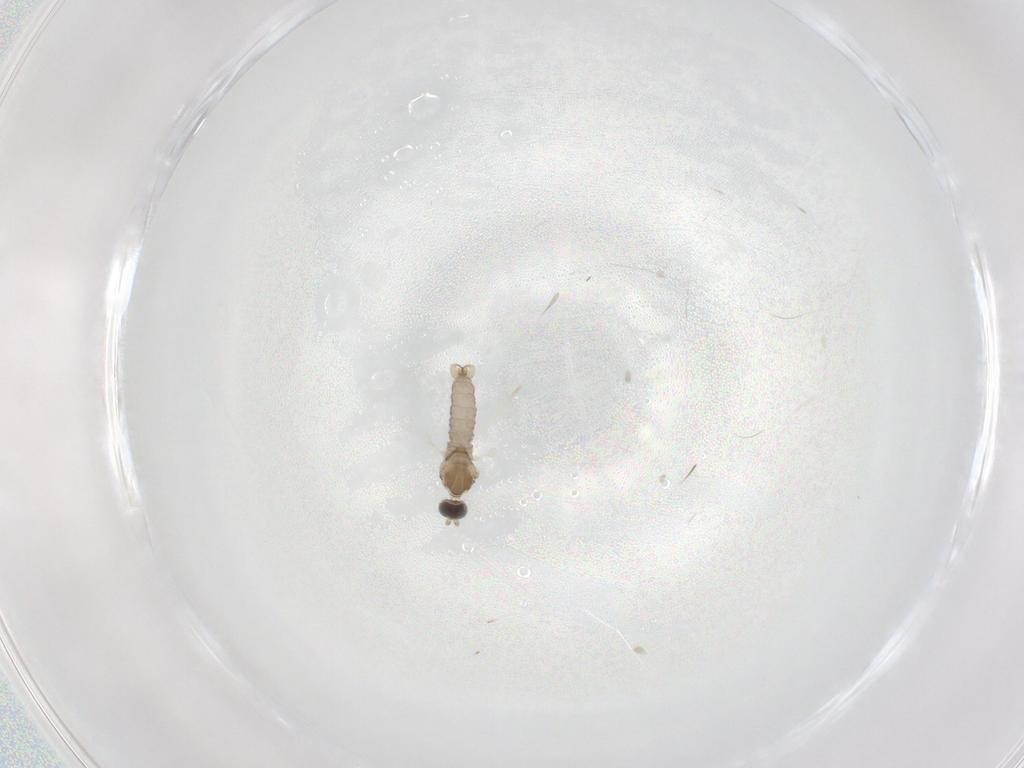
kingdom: Animalia
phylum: Arthropoda
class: Insecta
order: Diptera
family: Cecidomyiidae
